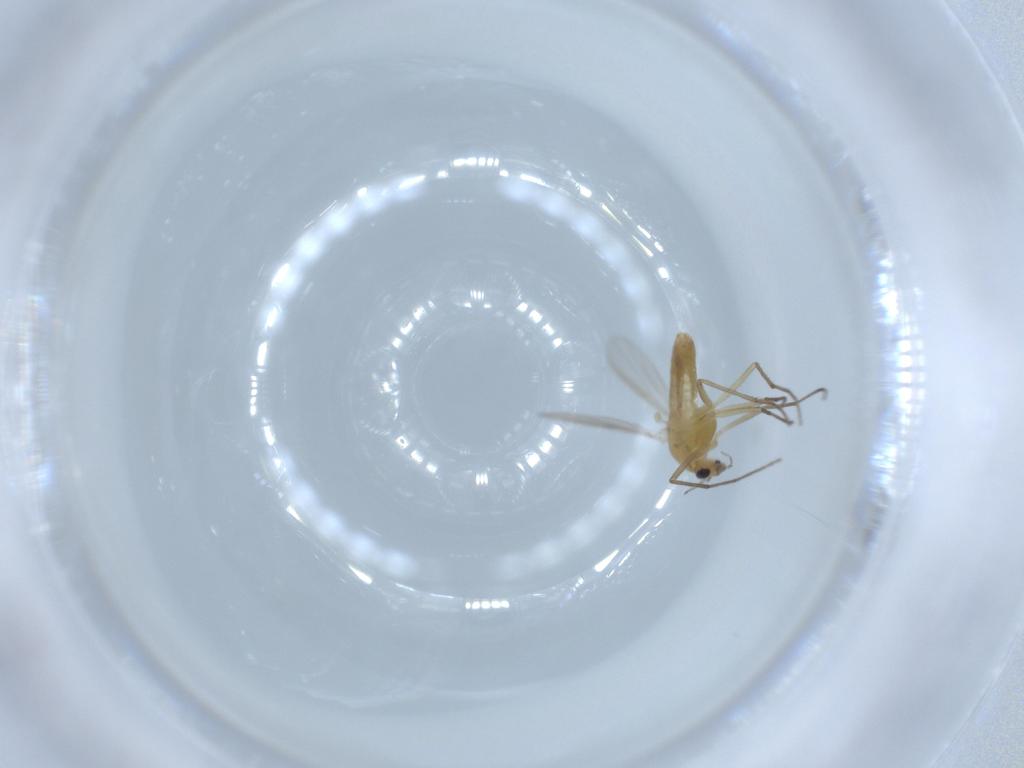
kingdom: Animalia
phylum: Arthropoda
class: Insecta
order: Diptera
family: Chironomidae
